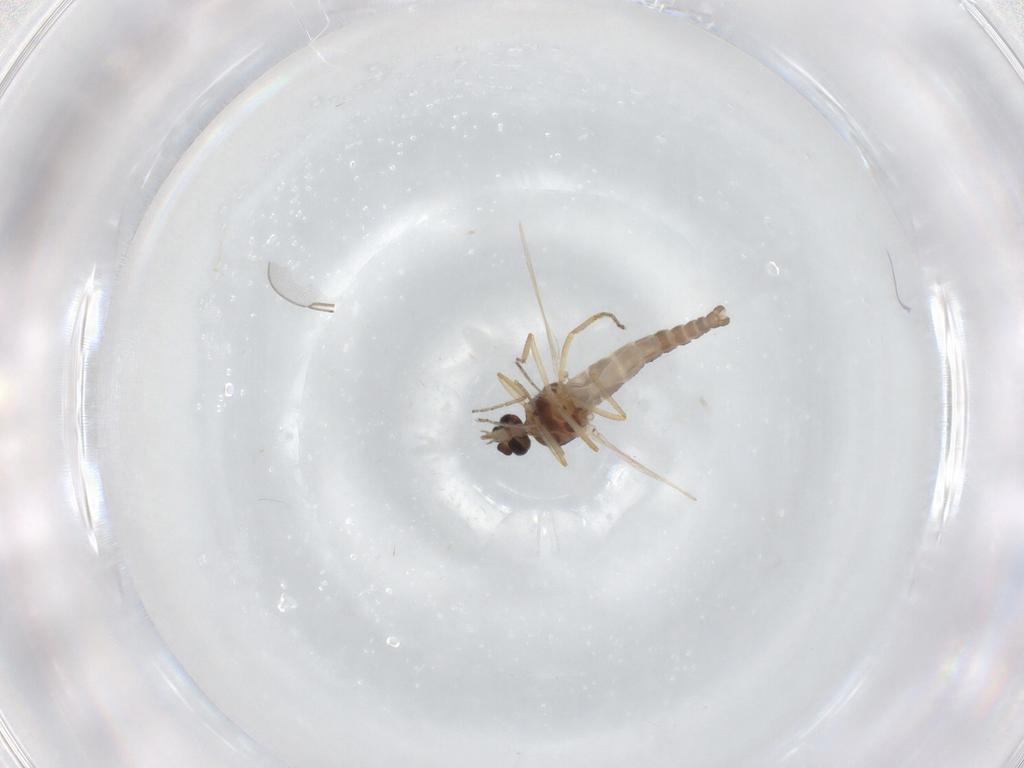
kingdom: Animalia
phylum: Arthropoda
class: Insecta
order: Diptera
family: Ceratopogonidae
